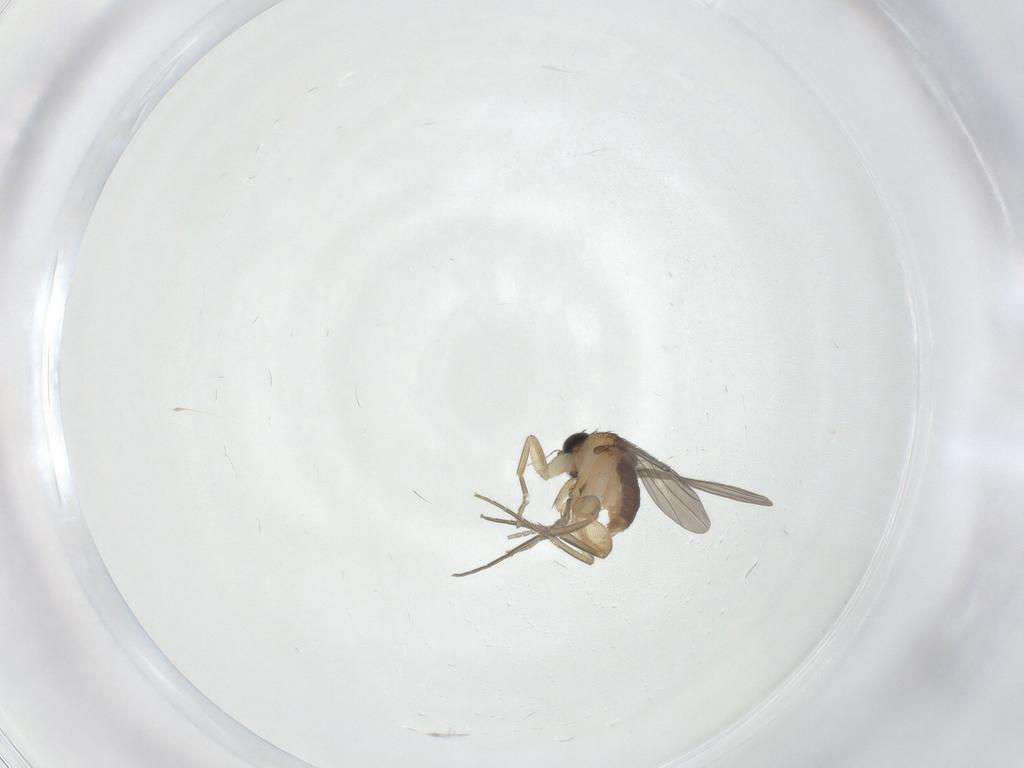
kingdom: Animalia
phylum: Arthropoda
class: Insecta
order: Diptera
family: Phoridae
